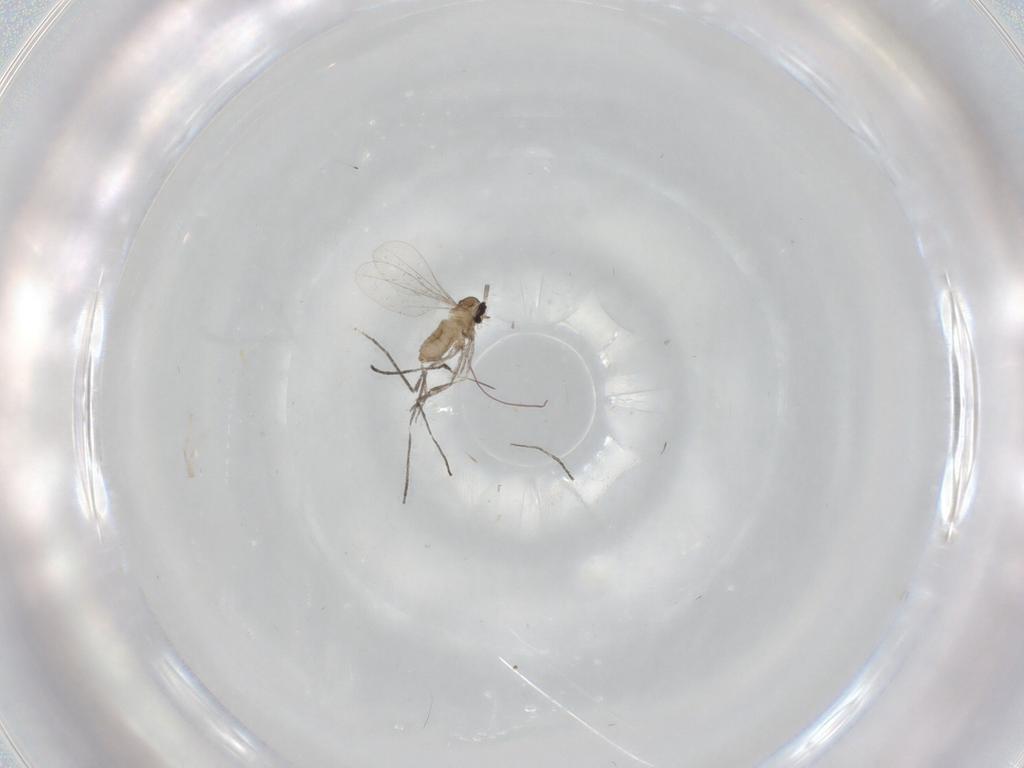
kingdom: Animalia
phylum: Arthropoda
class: Insecta
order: Diptera
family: Cecidomyiidae
